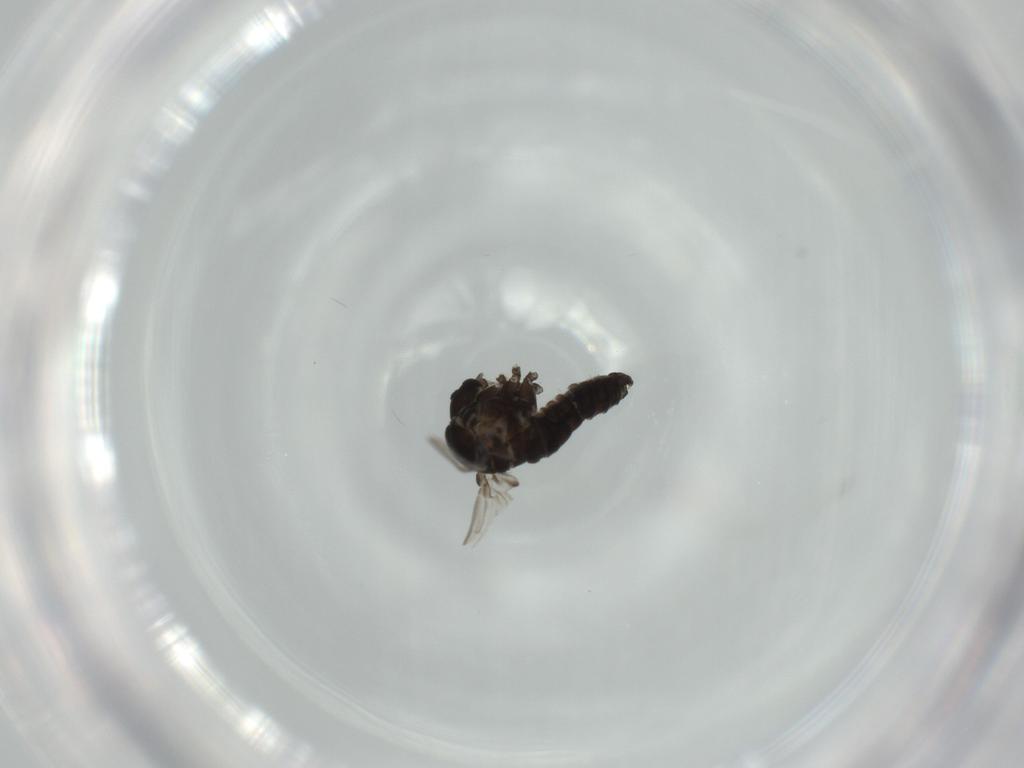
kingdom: Animalia
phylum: Arthropoda
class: Insecta
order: Diptera
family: Psychodidae
